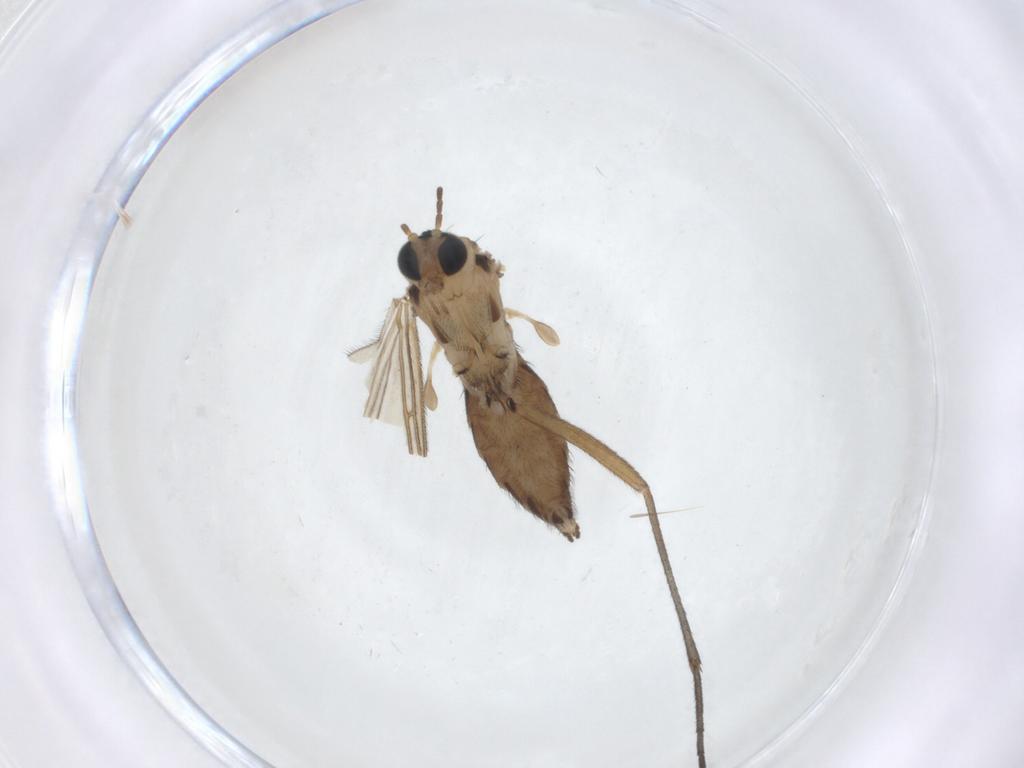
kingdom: Animalia
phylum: Arthropoda
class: Insecta
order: Diptera
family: Sciaridae
